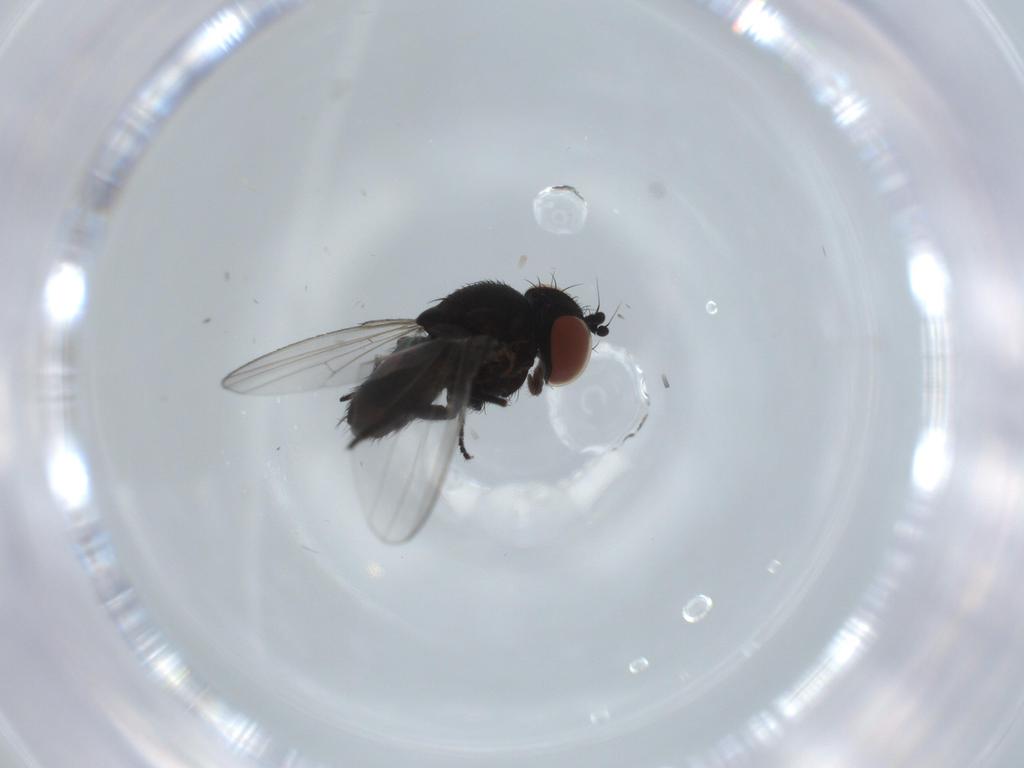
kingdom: Animalia
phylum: Arthropoda
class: Insecta
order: Diptera
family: Milichiidae
